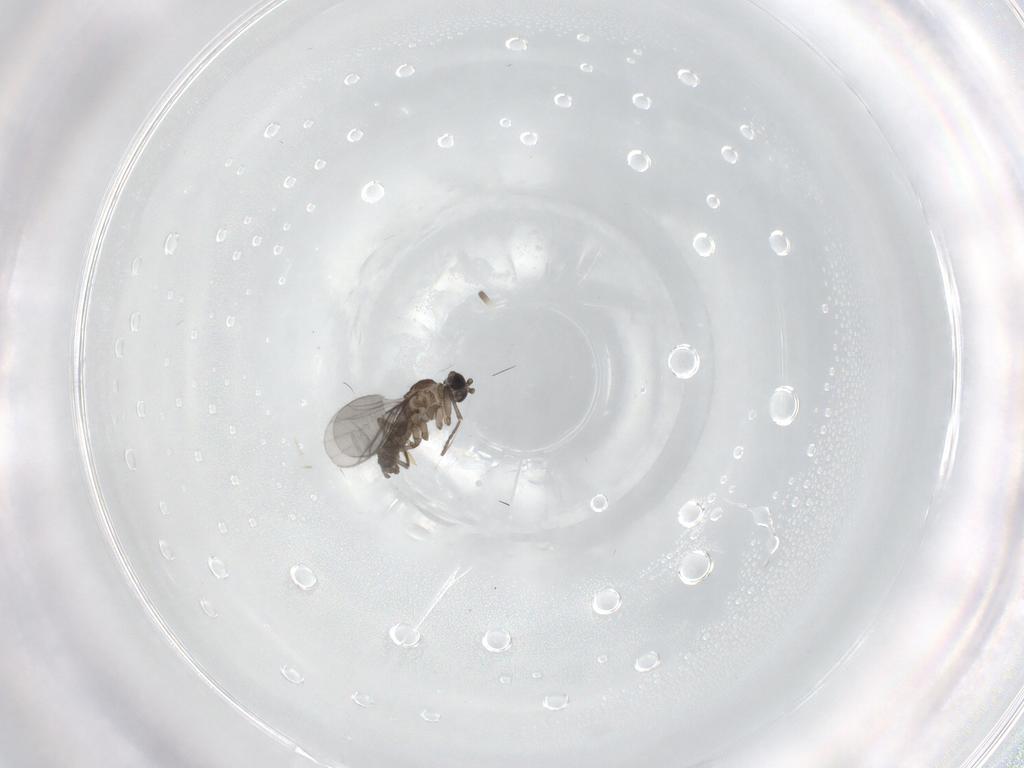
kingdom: Animalia
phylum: Arthropoda
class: Insecta
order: Diptera
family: Sciaridae
